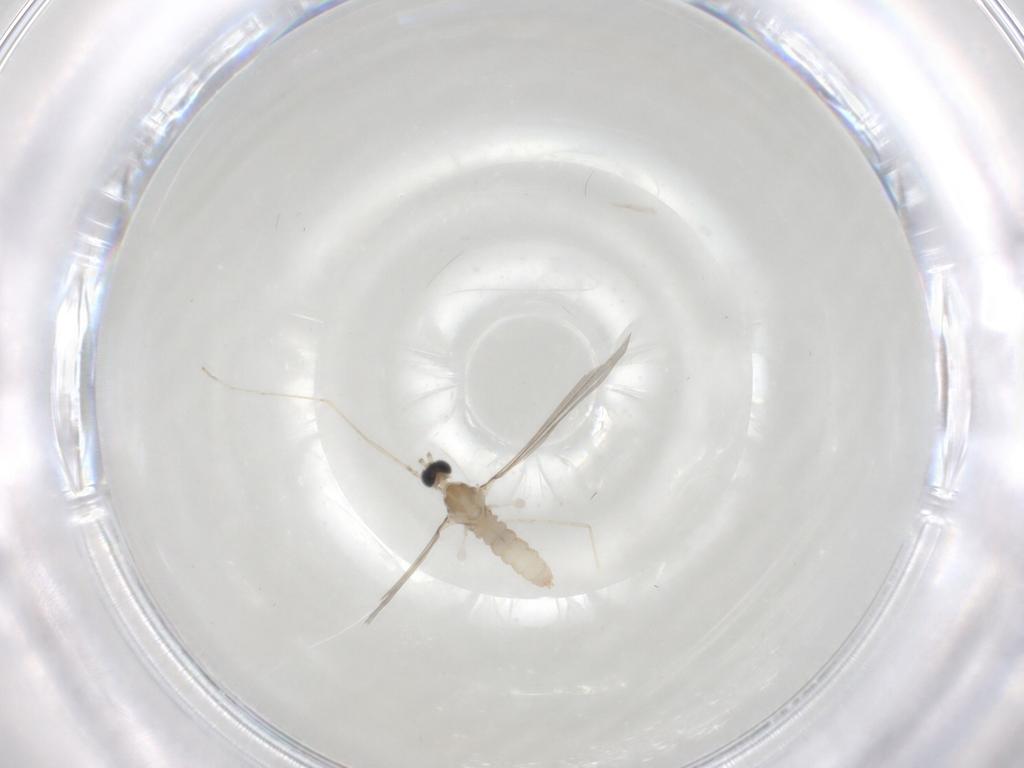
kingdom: Animalia
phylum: Arthropoda
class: Insecta
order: Diptera
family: Cecidomyiidae
